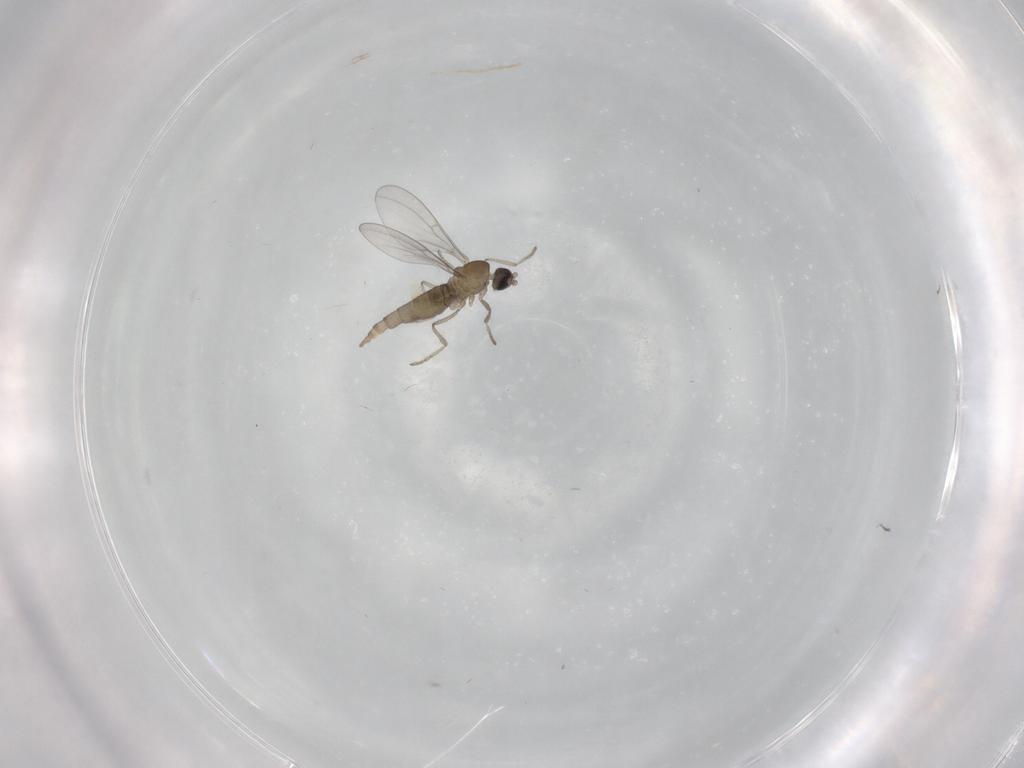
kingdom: Animalia
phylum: Arthropoda
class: Insecta
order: Diptera
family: Cecidomyiidae
